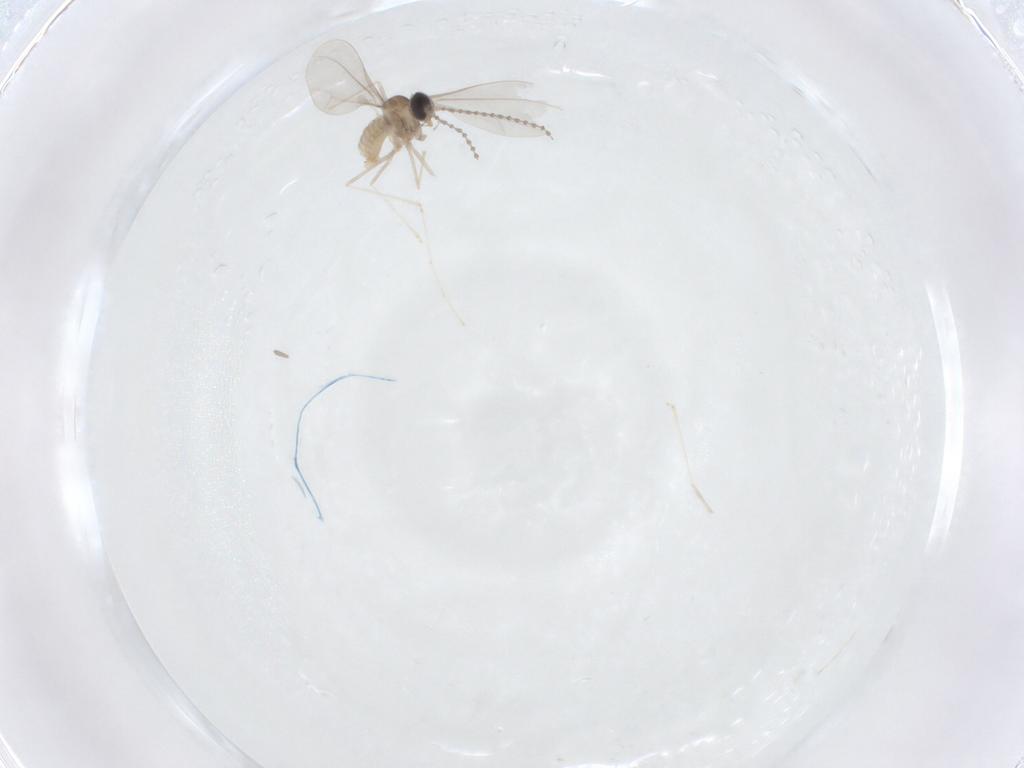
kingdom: Animalia
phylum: Arthropoda
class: Insecta
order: Diptera
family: Cecidomyiidae
